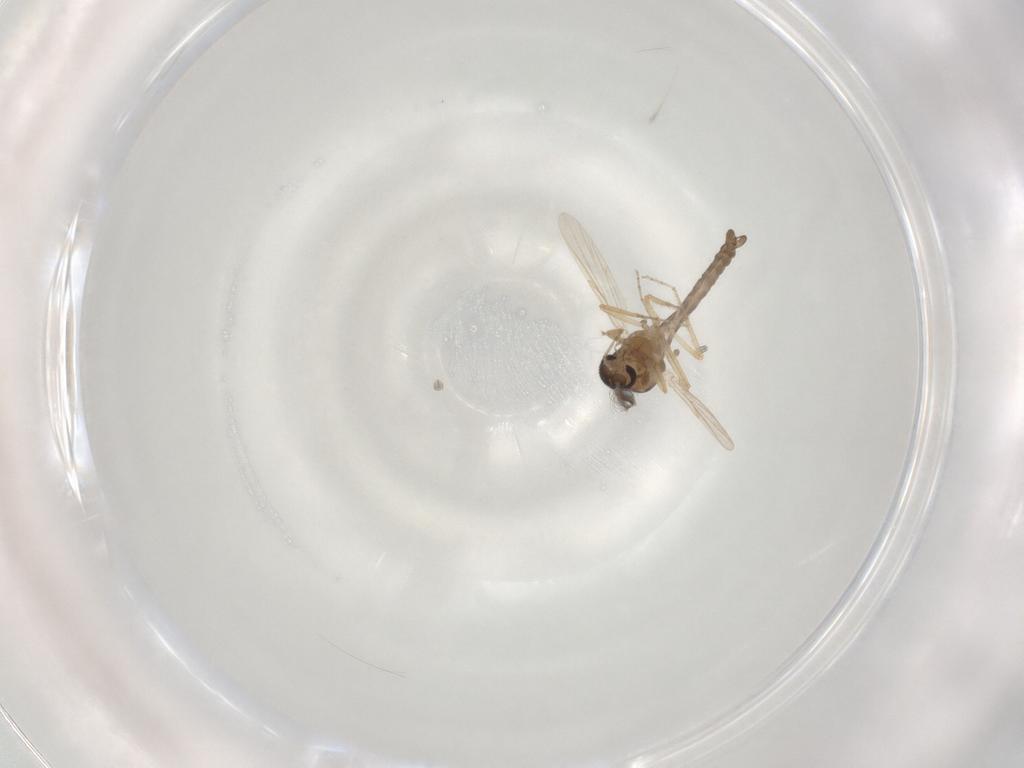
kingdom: Animalia
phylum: Arthropoda
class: Insecta
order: Diptera
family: Ceratopogonidae
